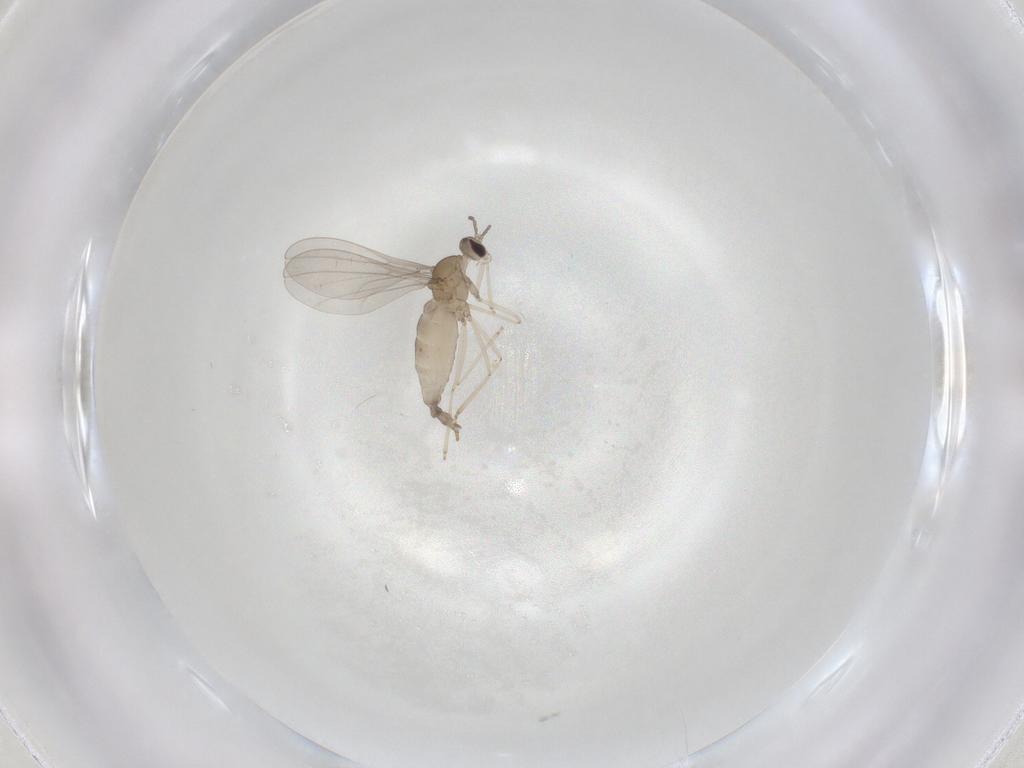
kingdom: Animalia
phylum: Arthropoda
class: Insecta
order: Diptera
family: Cecidomyiidae
